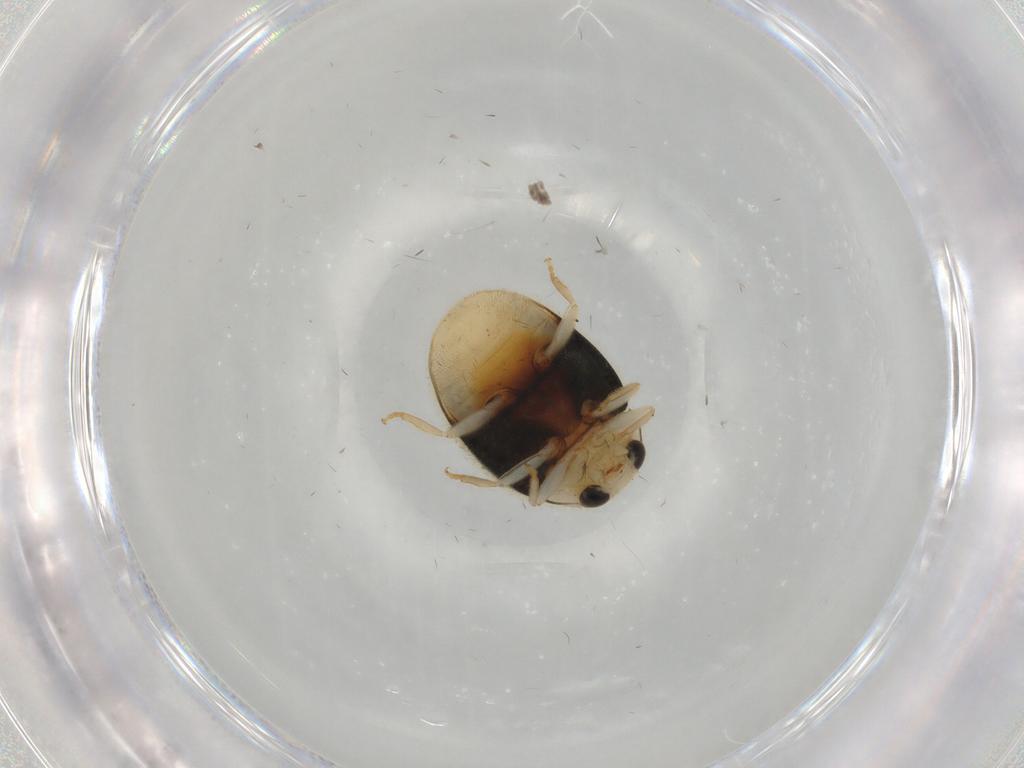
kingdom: Animalia
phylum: Arthropoda
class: Insecta
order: Coleoptera
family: Coccinellidae
